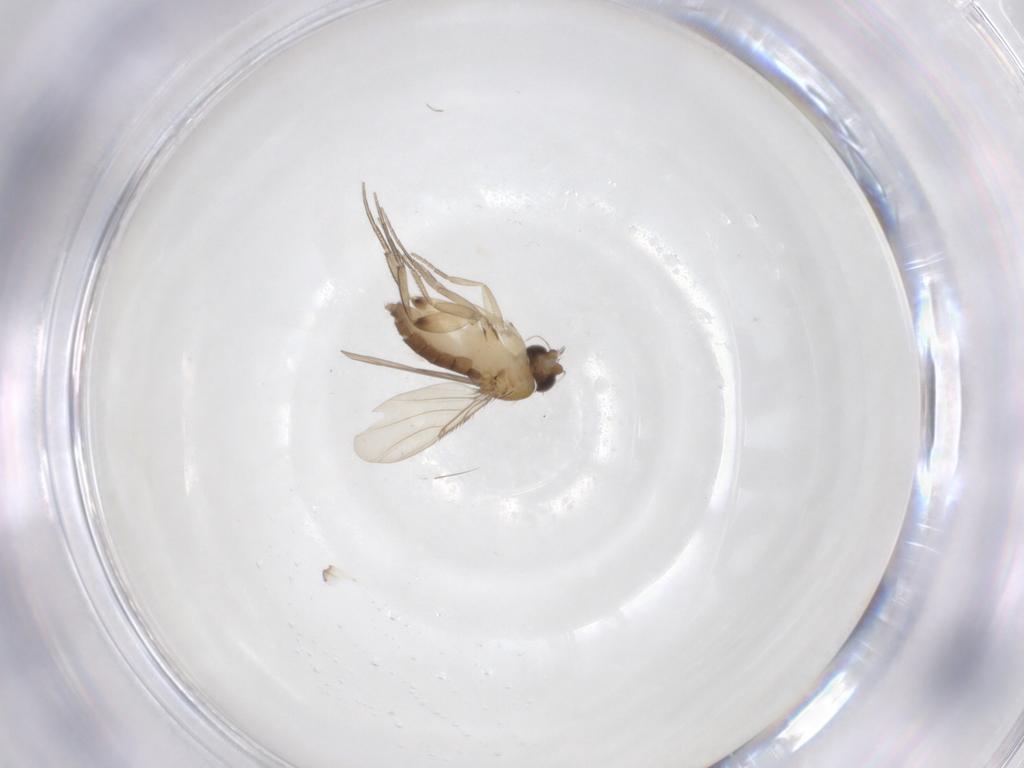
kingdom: Animalia
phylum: Arthropoda
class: Insecta
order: Diptera
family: Phoridae
